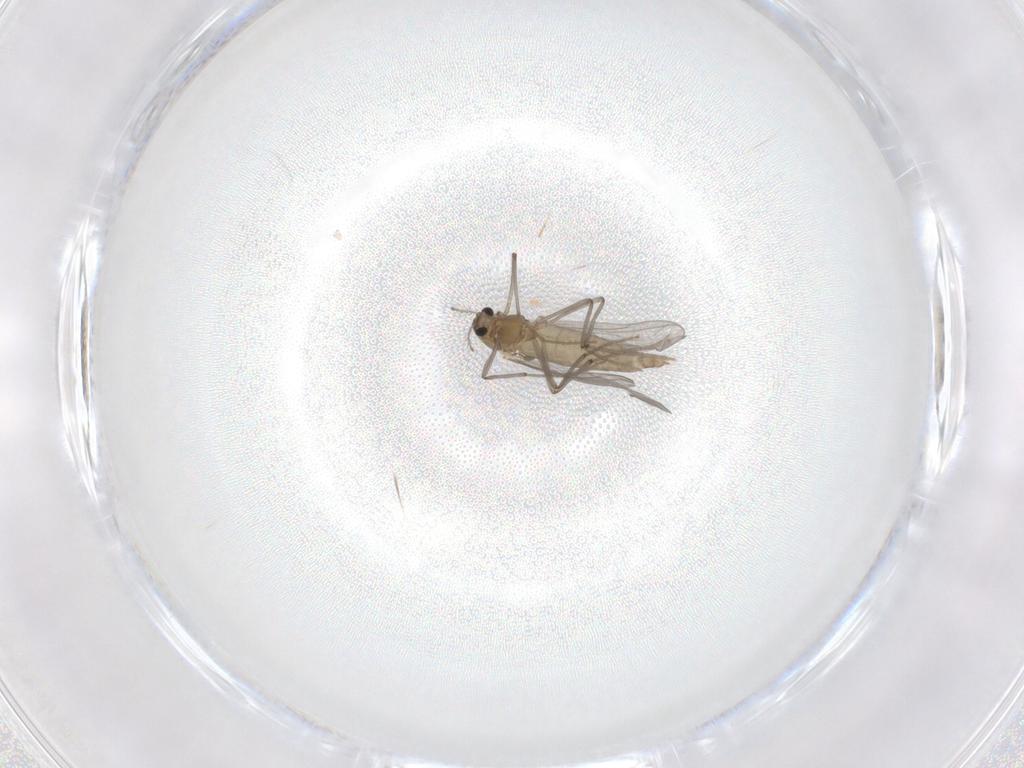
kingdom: Animalia
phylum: Arthropoda
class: Insecta
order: Diptera
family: Chironomidae
